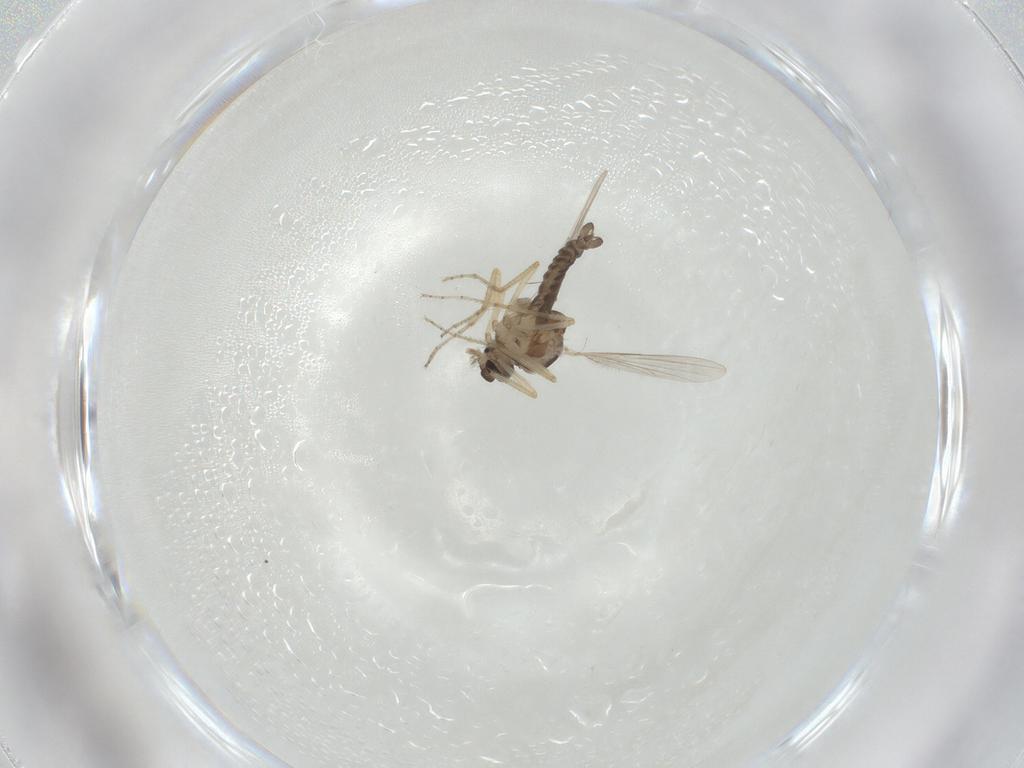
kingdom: Animalia
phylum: Arthropoda
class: Insecta
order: Diptera
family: Ceratopogonidae
